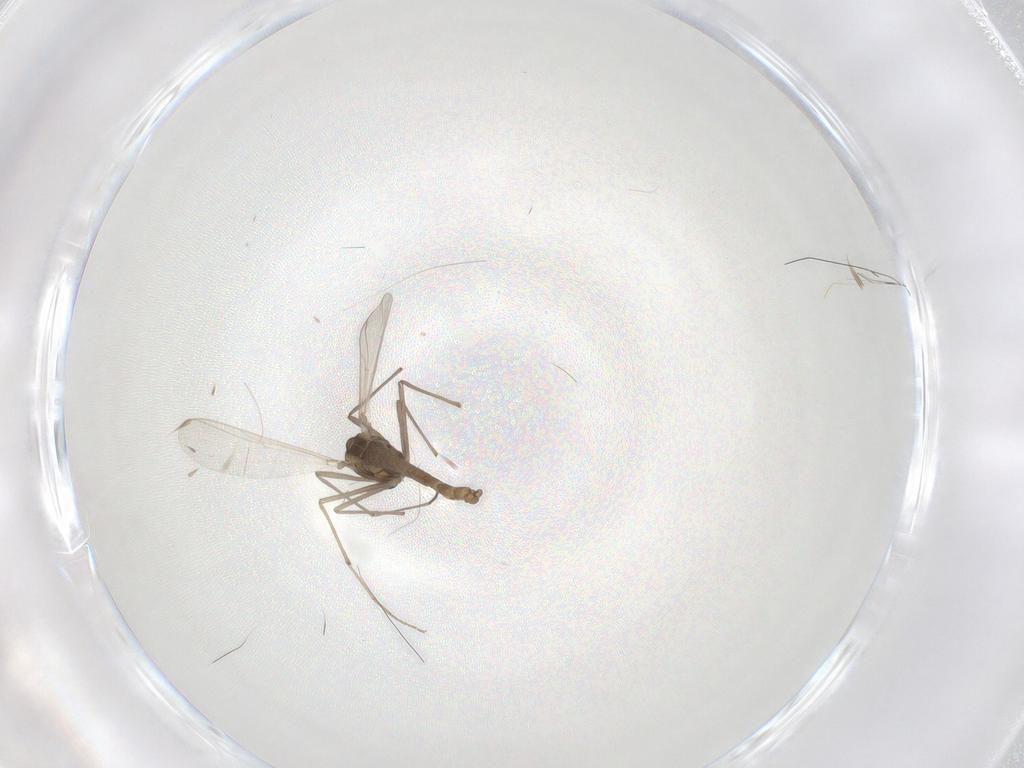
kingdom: Animalia
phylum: Arthropoda
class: Insecta
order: Diptera
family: Chironomidae
